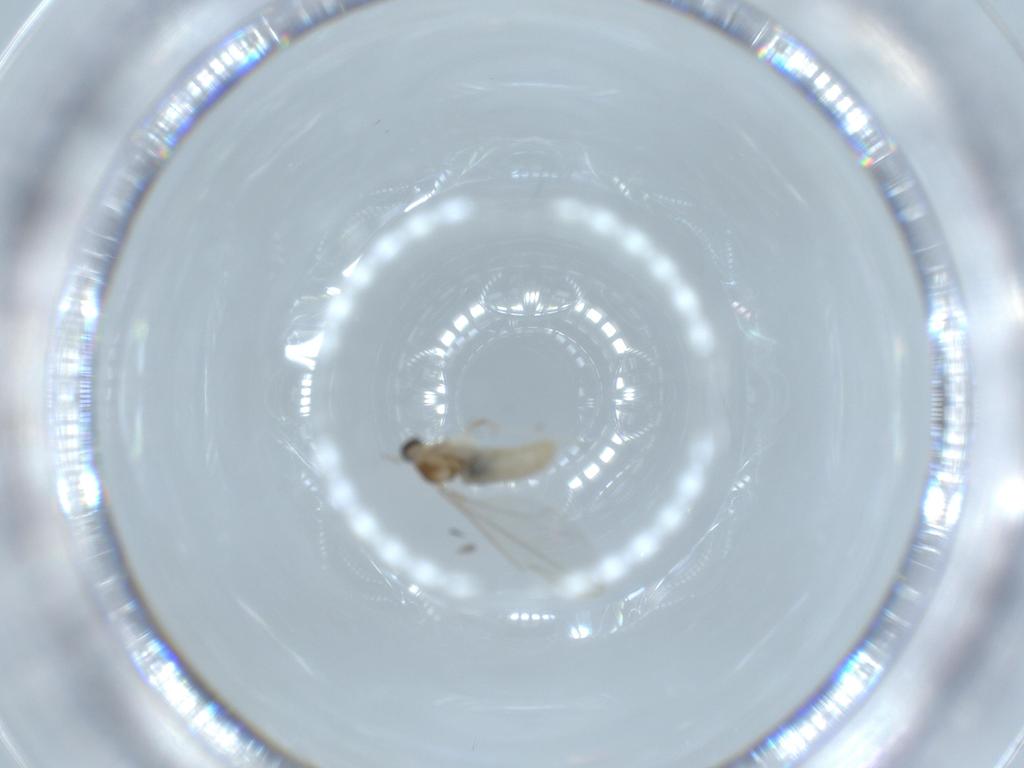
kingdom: Animalia
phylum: Arthropoda
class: Insecta
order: Diptera
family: Cecidomyiidae
